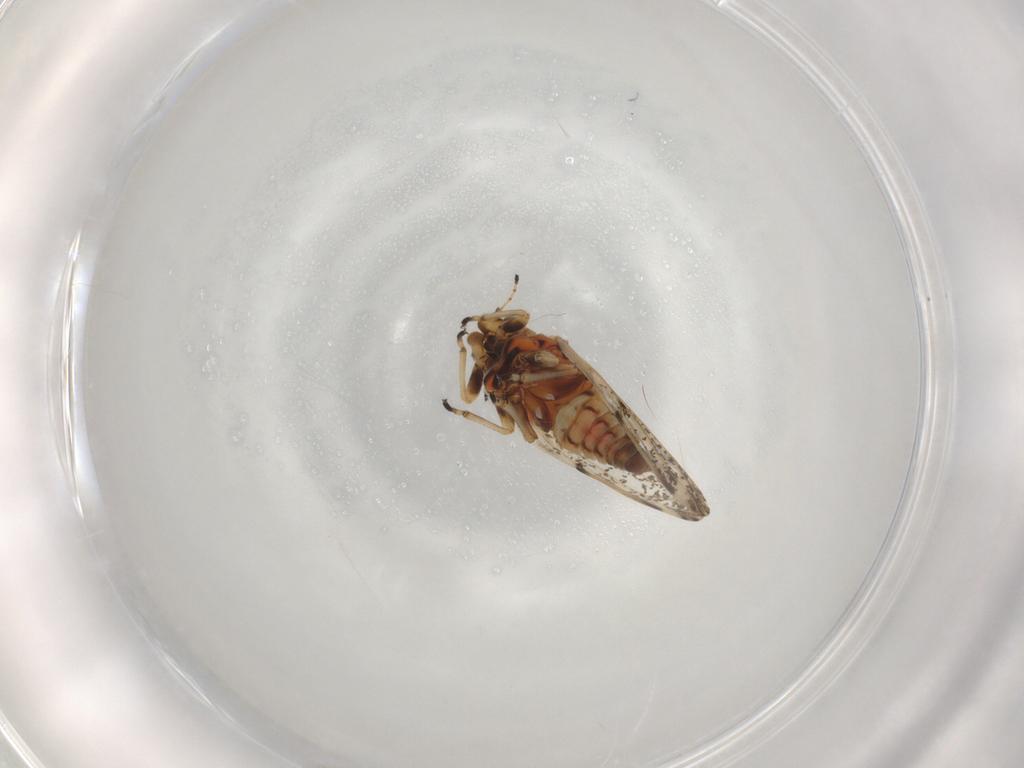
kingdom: Animalia
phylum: Arthropoda
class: Insecta
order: Hemiptera
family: Psylloidea_incertae_sedis
